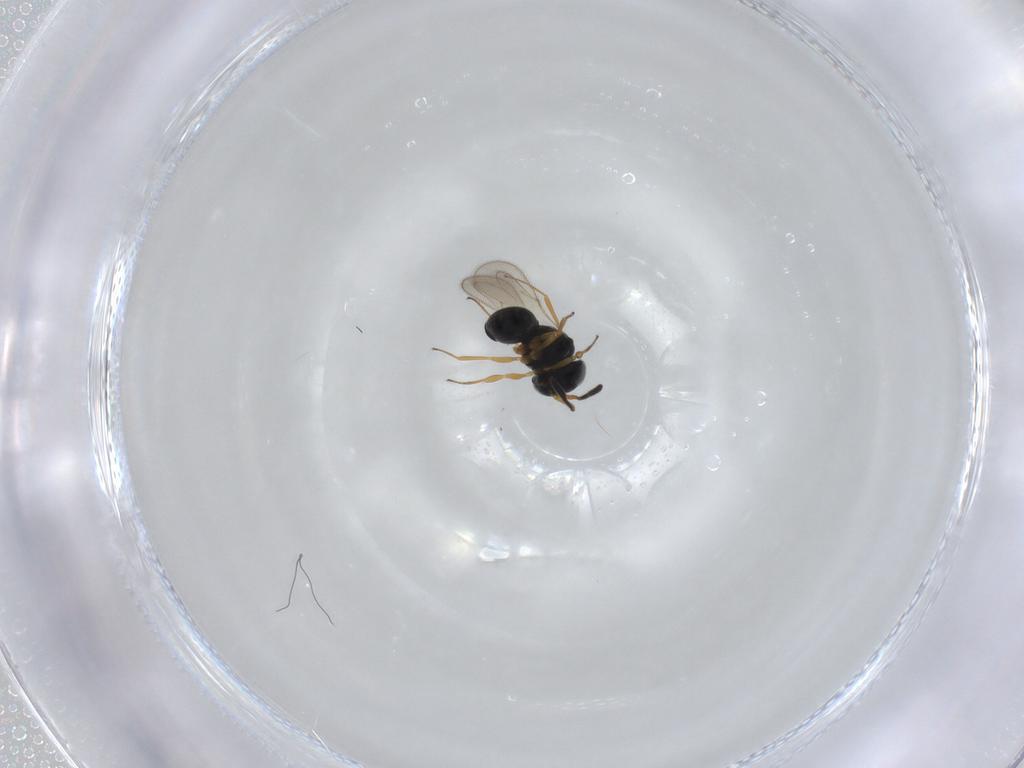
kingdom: Animalia
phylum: Arthropoda
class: Insecta
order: Hymenoptera
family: Scelionidae
